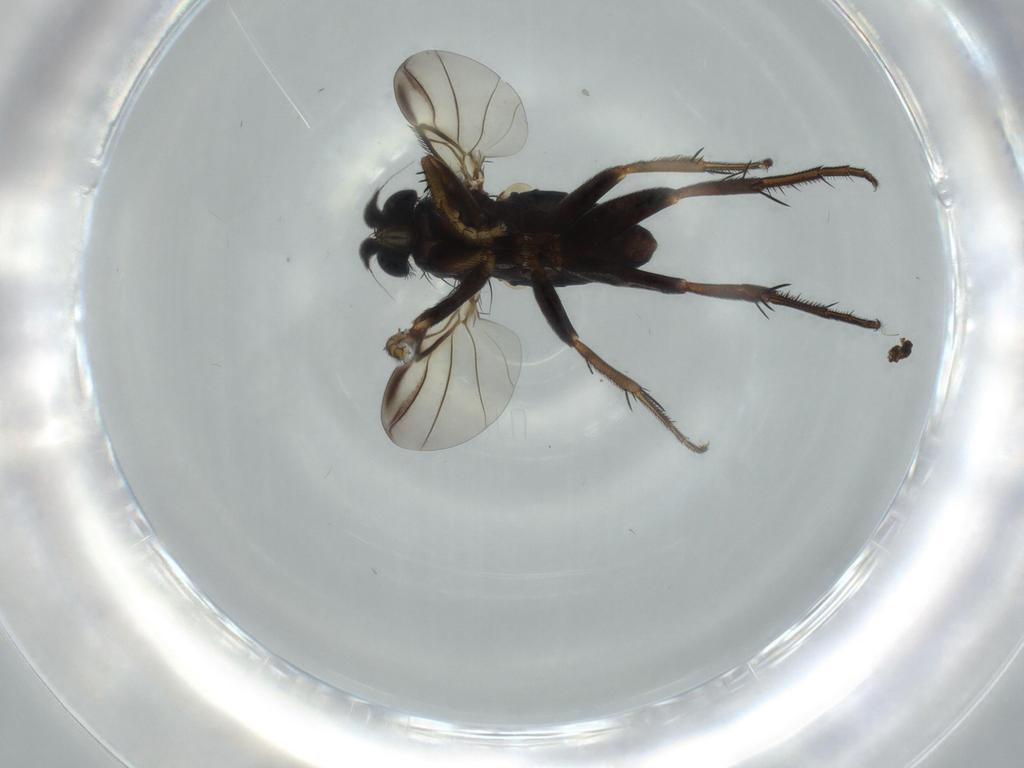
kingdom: Animalia
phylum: Arthropoda
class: Insecta
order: Diptera
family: Phoridae
